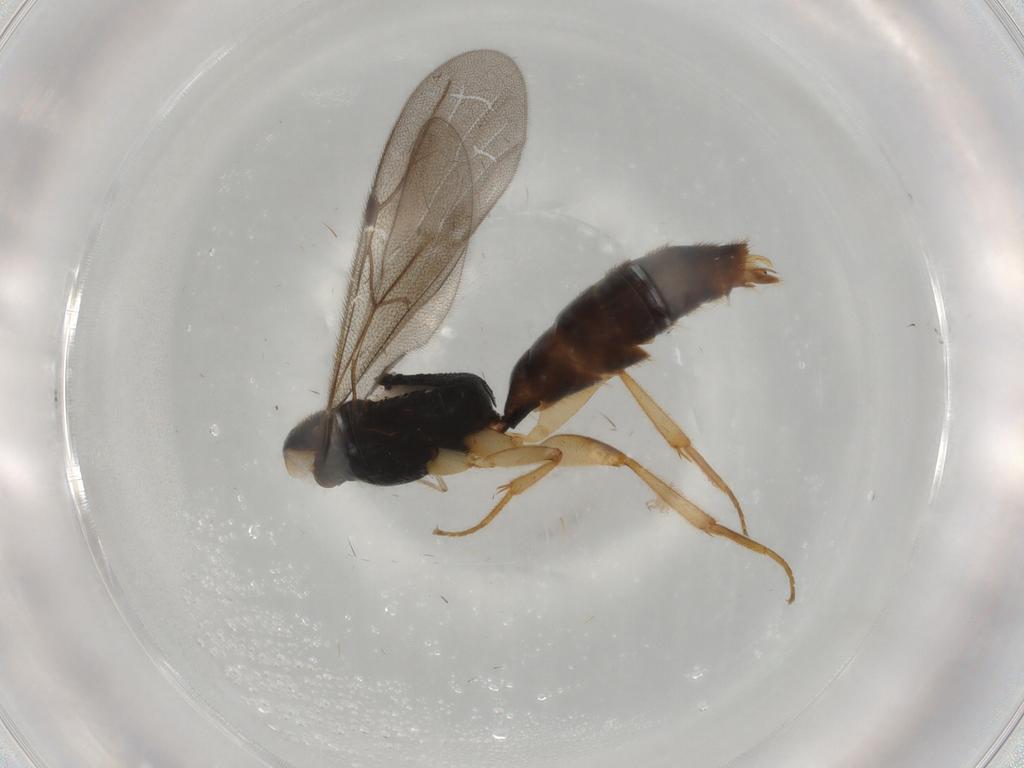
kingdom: Animalia
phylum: Arthropoda
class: Insecta
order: Hymenoptera
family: Bethylidae
